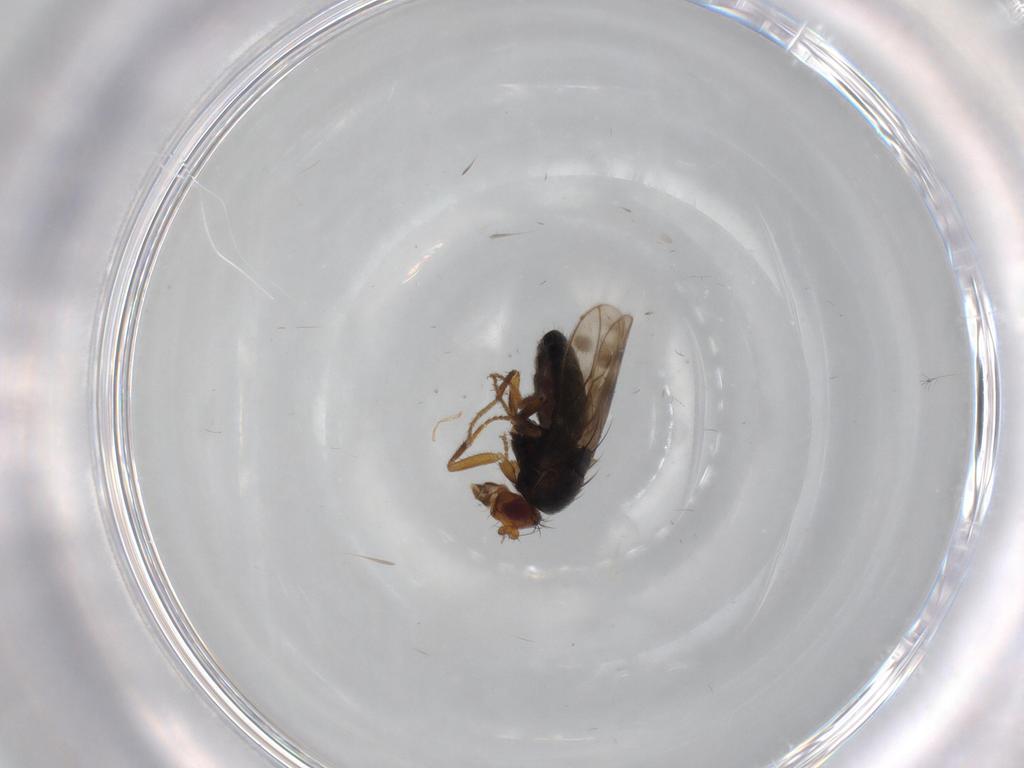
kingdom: Animalia
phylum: Arthropoda
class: Insecta
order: Diptera
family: Sphaeroceridae
